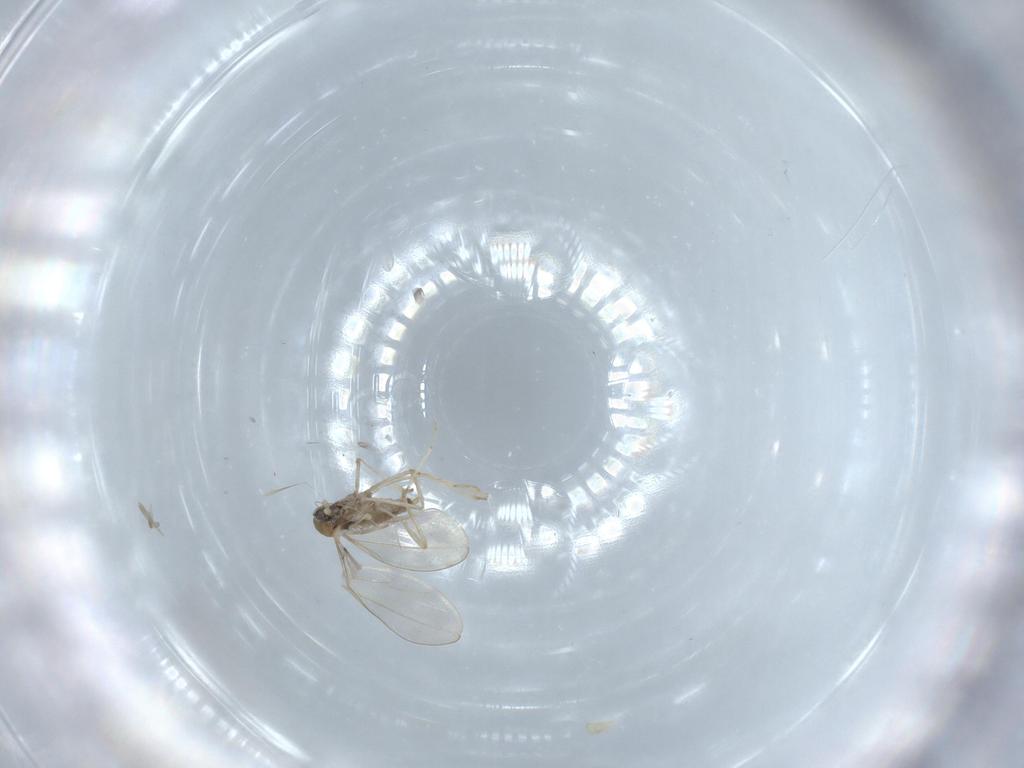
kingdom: Animalia
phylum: Arthropoda
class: Insecta
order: Diptera
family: Cecidomyiidae
